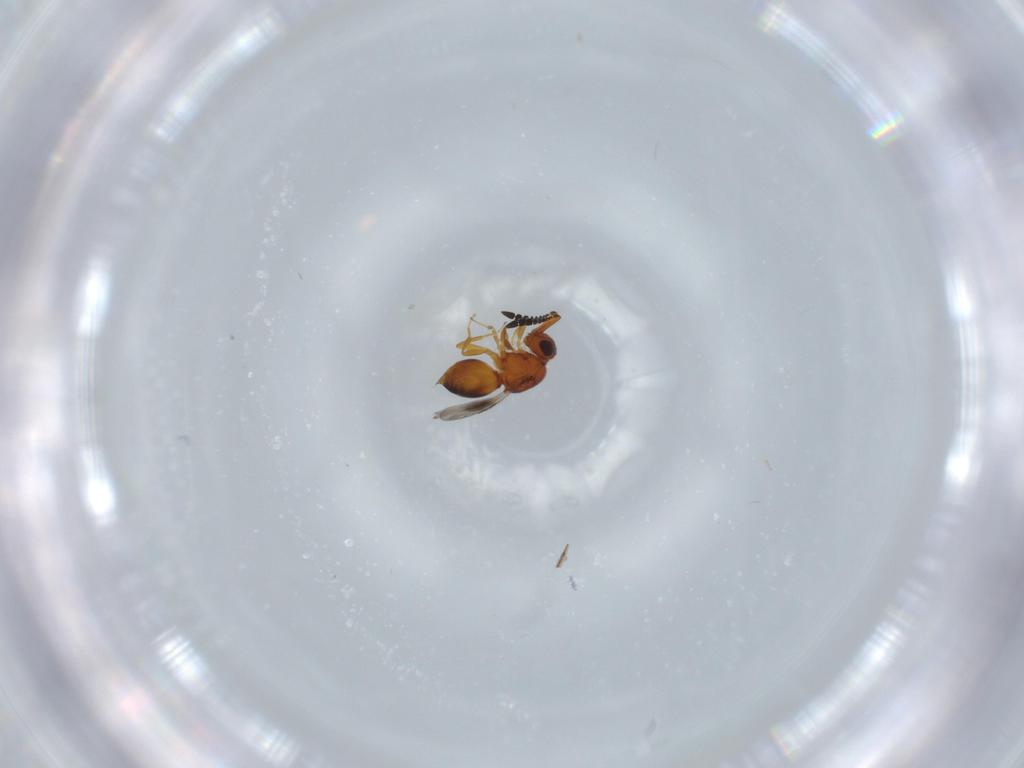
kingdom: Animalia
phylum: Arthropoda
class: Insecta
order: Hymenoptera
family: Ceraphronidae
